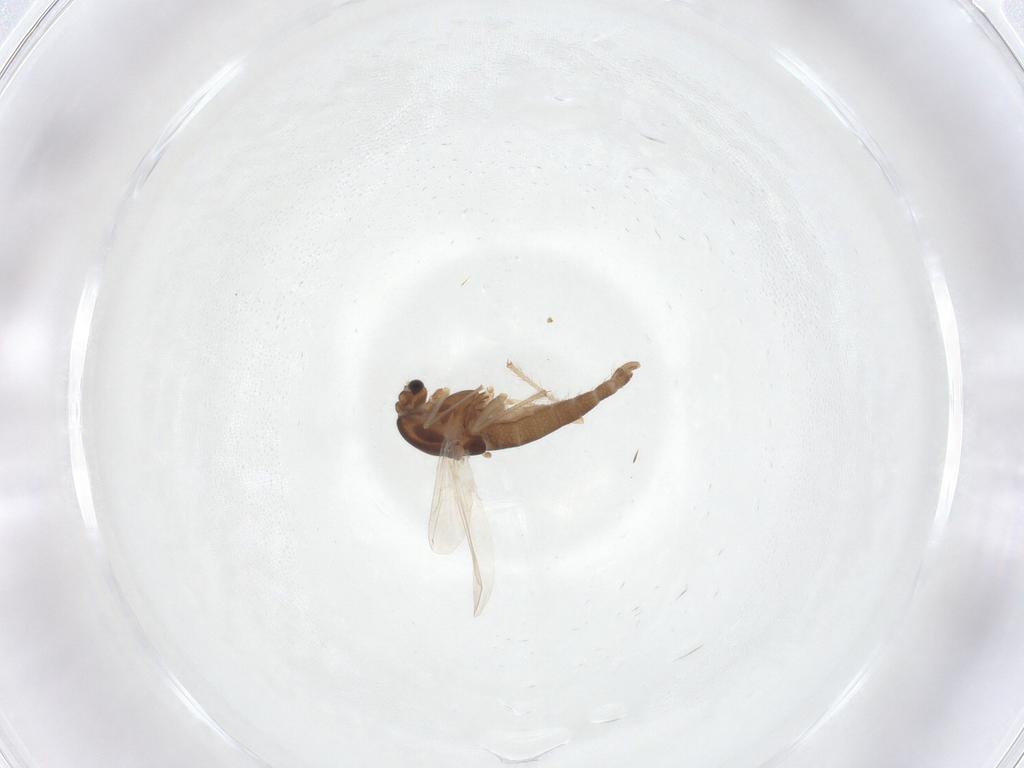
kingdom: Animalia
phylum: Arthropoda
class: Insecta
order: Diptera
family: Chironomidae
